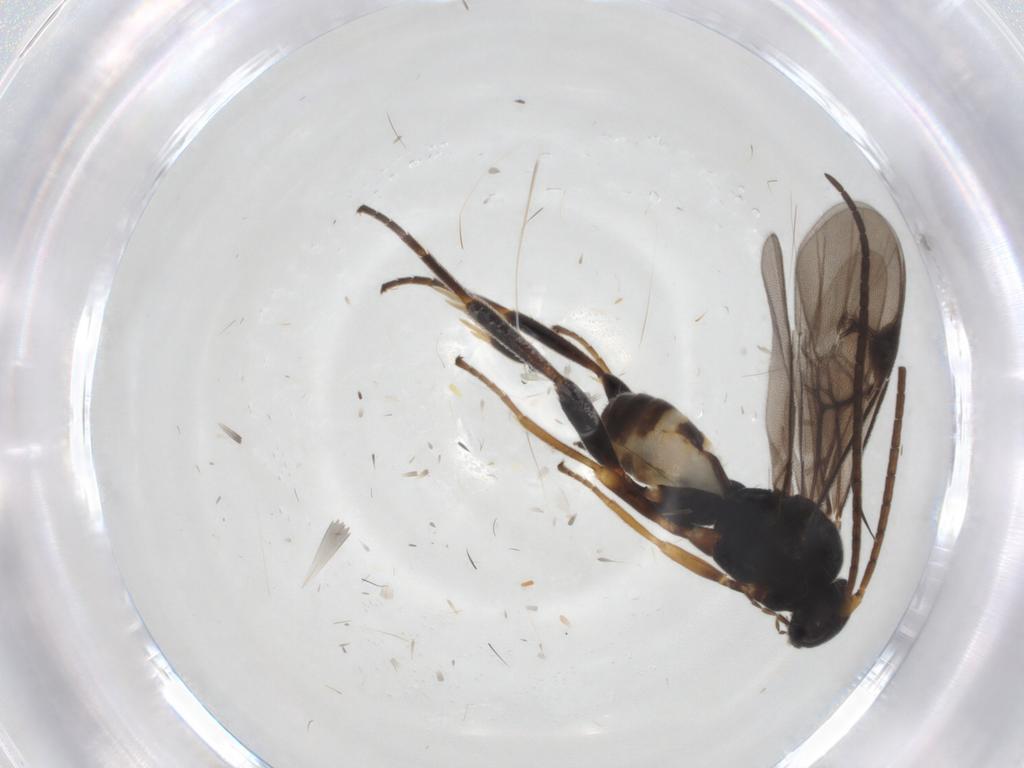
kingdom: Animalia
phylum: Arthropoda
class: Insecta
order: Hymenoptera
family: Braconidae
